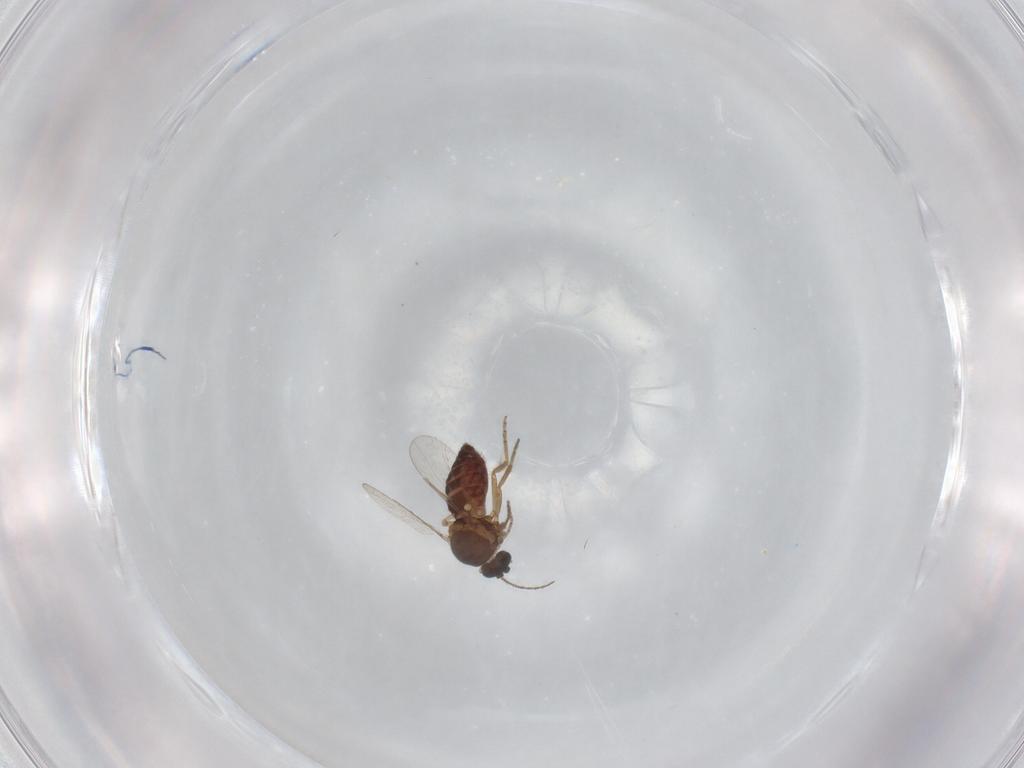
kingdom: Animalia
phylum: Arthropoda
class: Insecta
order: Diptera
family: Ceratopogonidae
